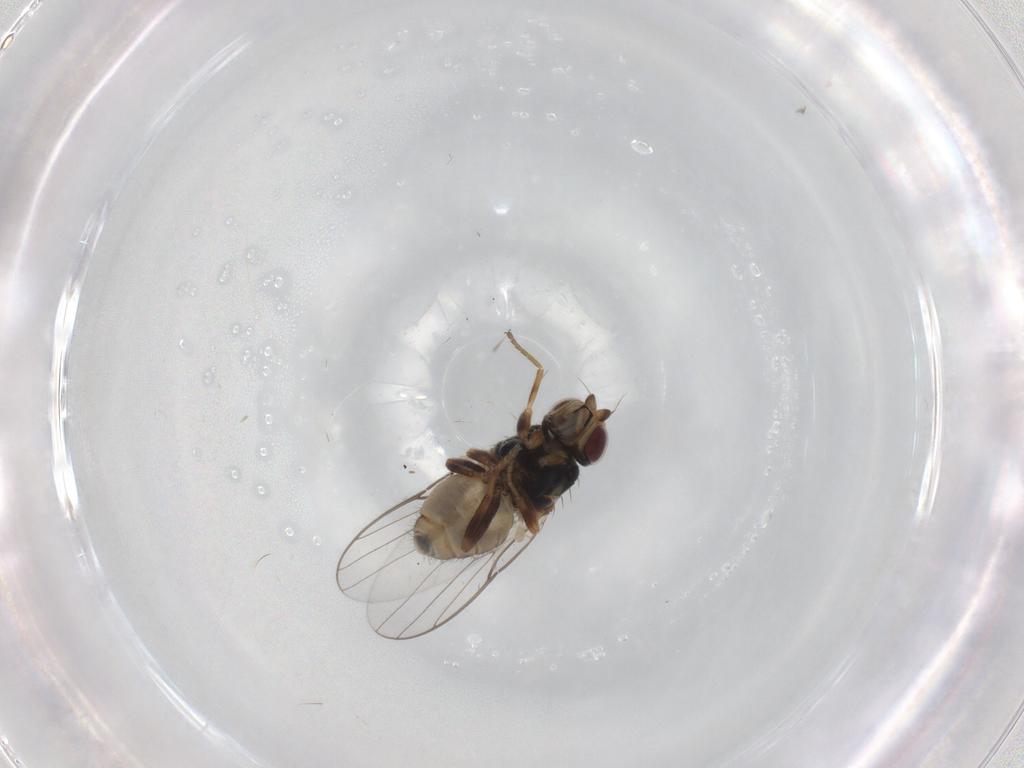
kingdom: Animalia
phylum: Arthropoda
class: Insecta
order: Diptera
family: Chloropidae
